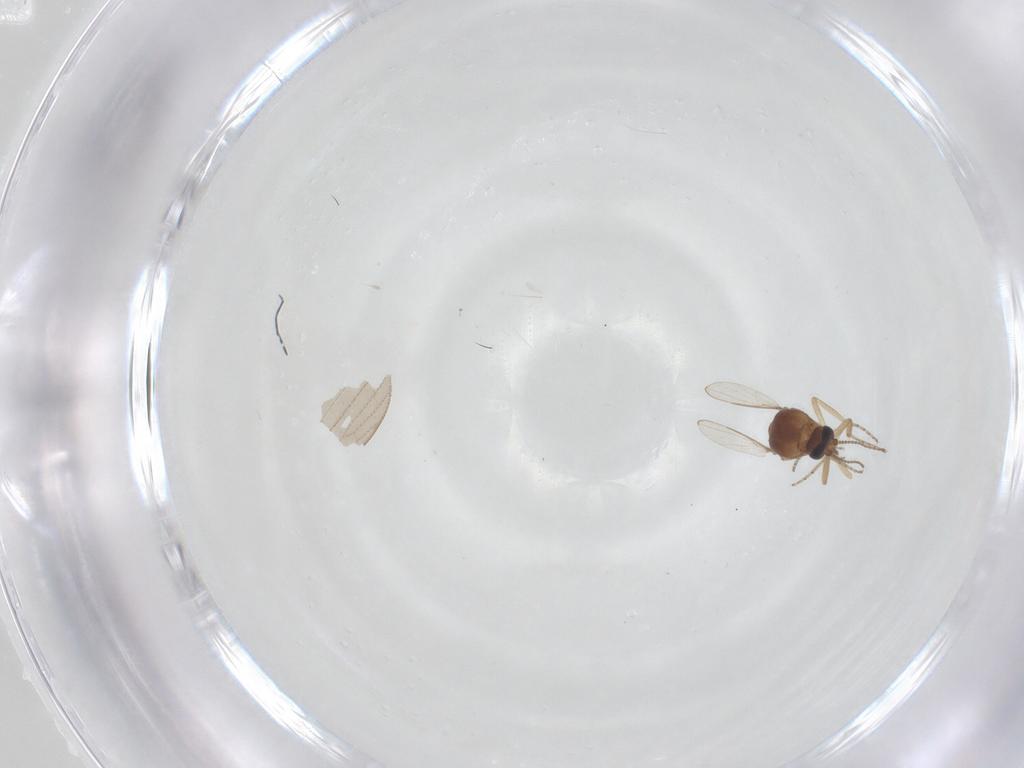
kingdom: Animalia
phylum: Arthropoda
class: Insecta
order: Diptera
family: Ceratopogonidae
